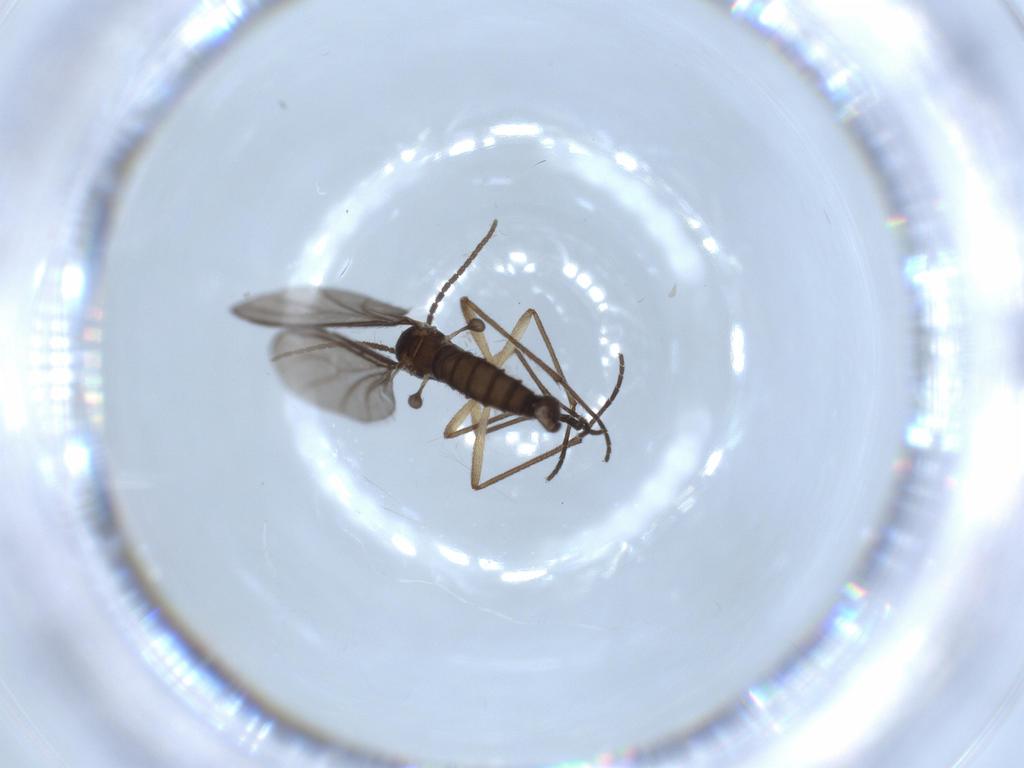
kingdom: Animalia
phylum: Arthropoda
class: Insecta
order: Diptera
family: Sciaridae
